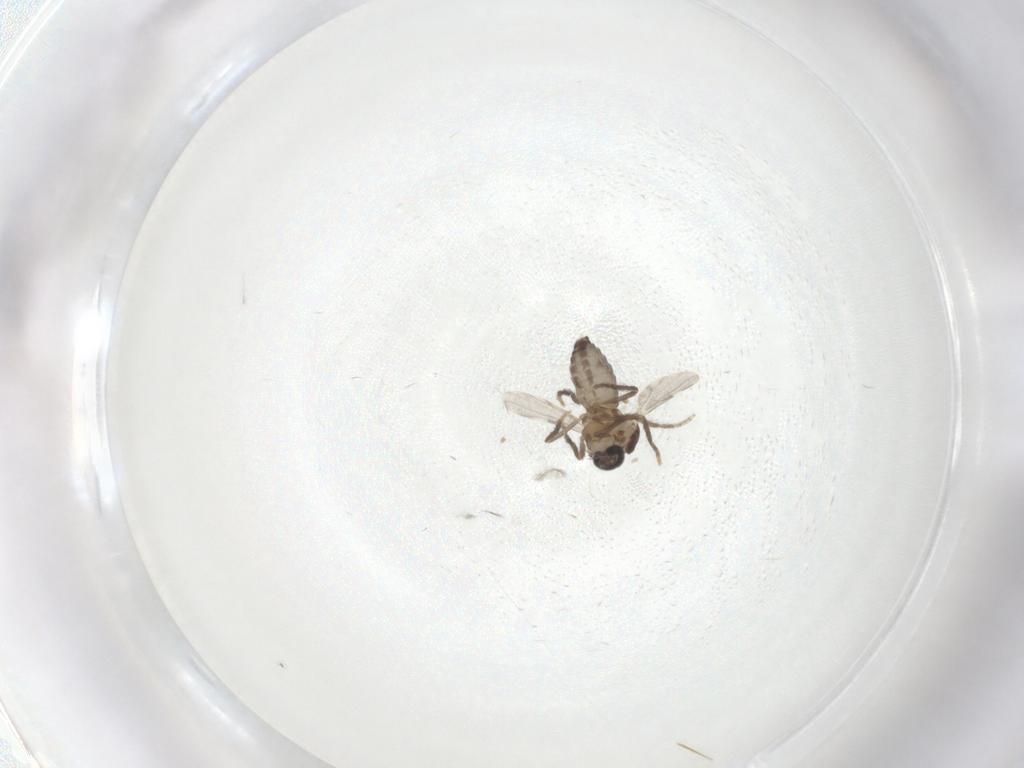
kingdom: Animalia
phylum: Arthropoda
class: Insecta
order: Diptera
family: Ceratopogonidae
